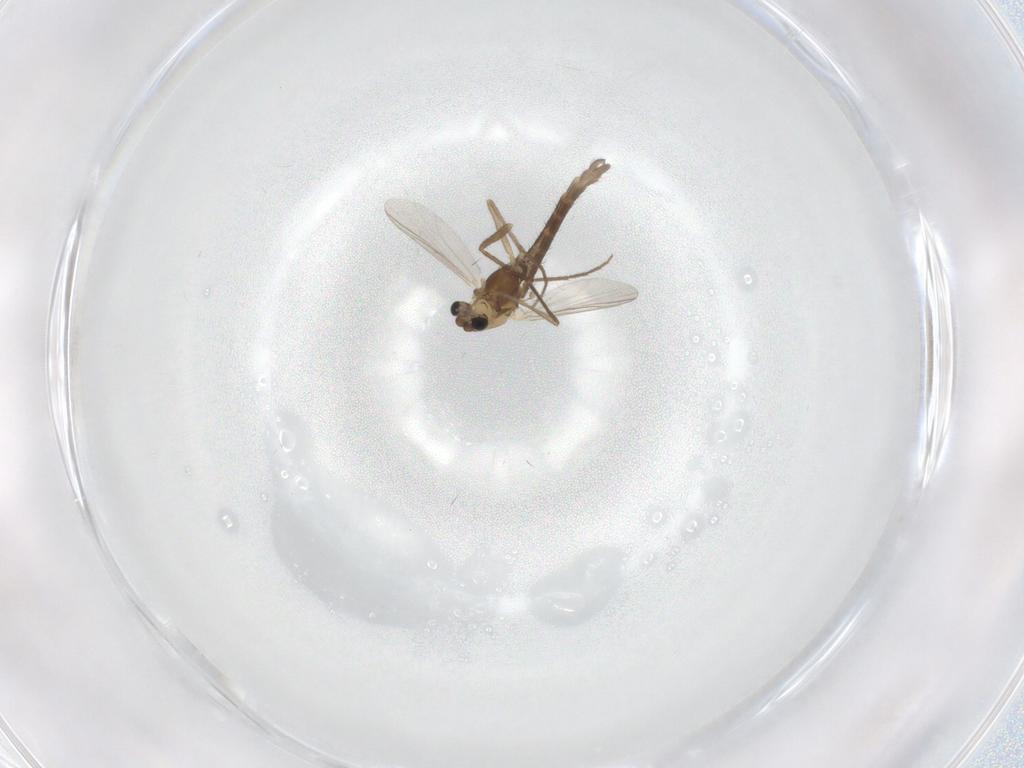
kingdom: Animalia
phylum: Arthropoda
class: Insecta
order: Diptera
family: Chironomidae
